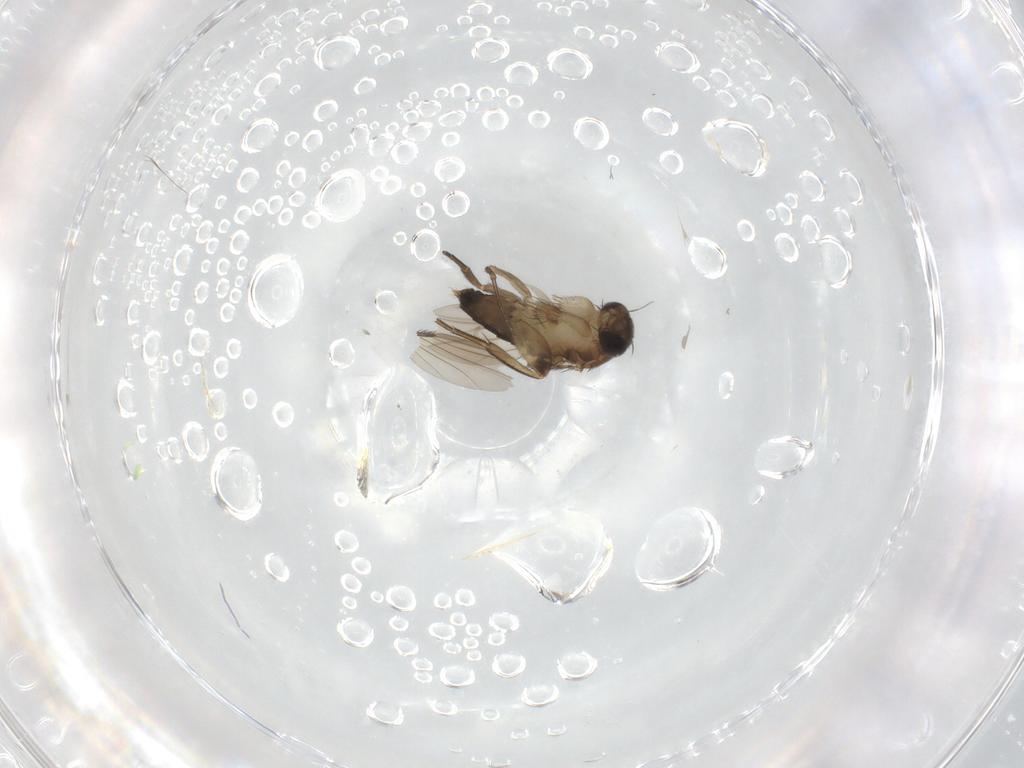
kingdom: Animalia
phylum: Arthropoda
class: Insecta
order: Diptera
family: Phoridae
